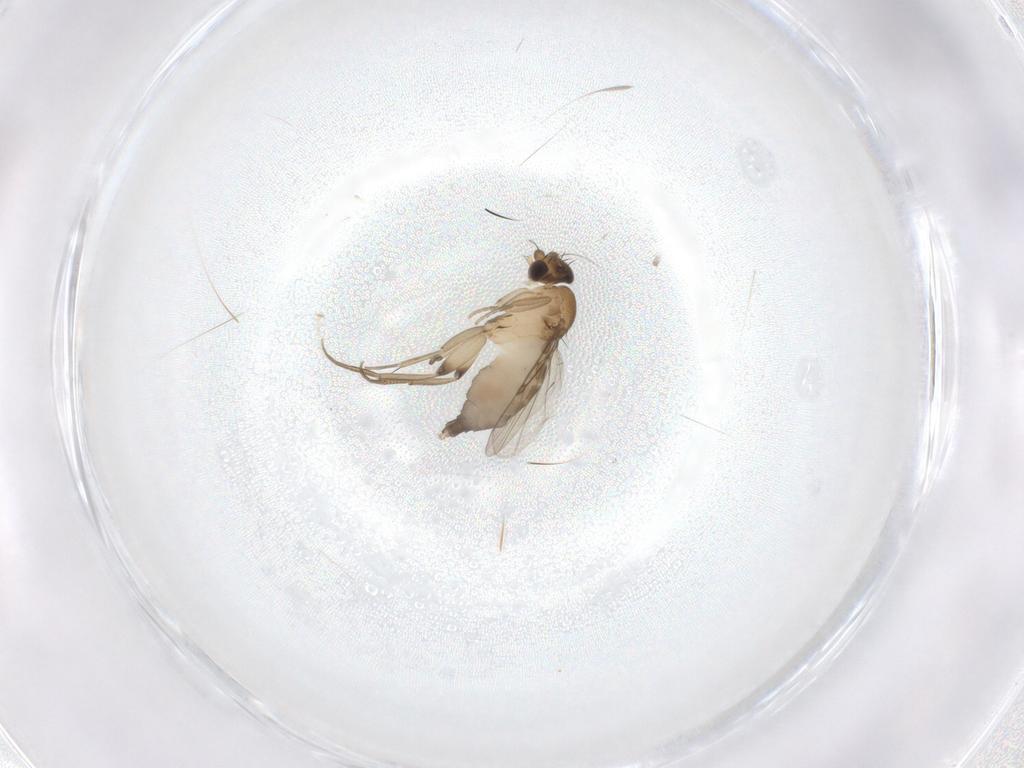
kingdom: Animalia
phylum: Arthropoda
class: Insecta
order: Diptera
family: Phoridae
